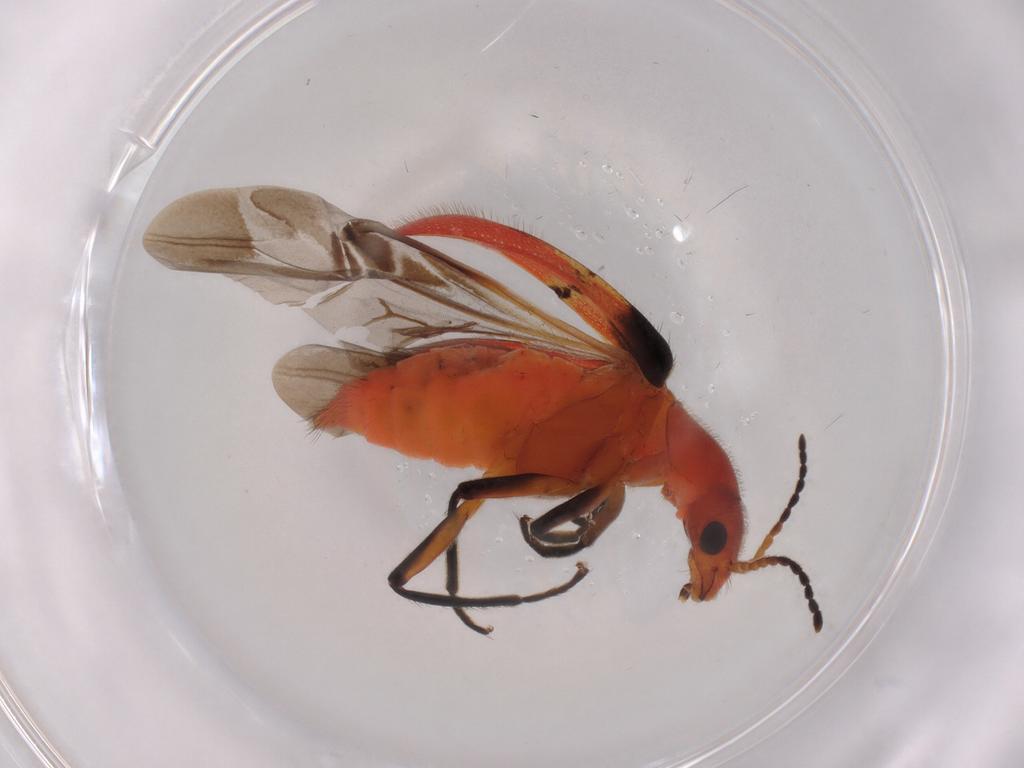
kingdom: Animalia
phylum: Arthropoda
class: Insecta
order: Coleoptera
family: Melyridae
